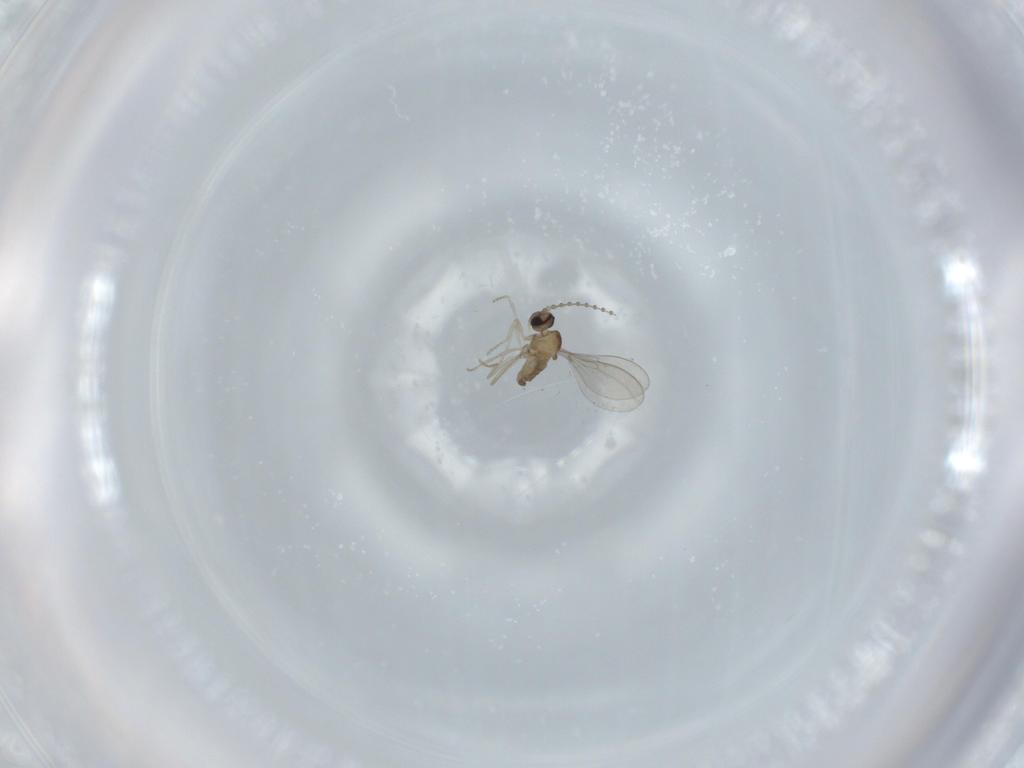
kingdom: Animalia
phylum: Arthropoda
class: Insecta
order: Diptera
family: Cecidomyiidae
